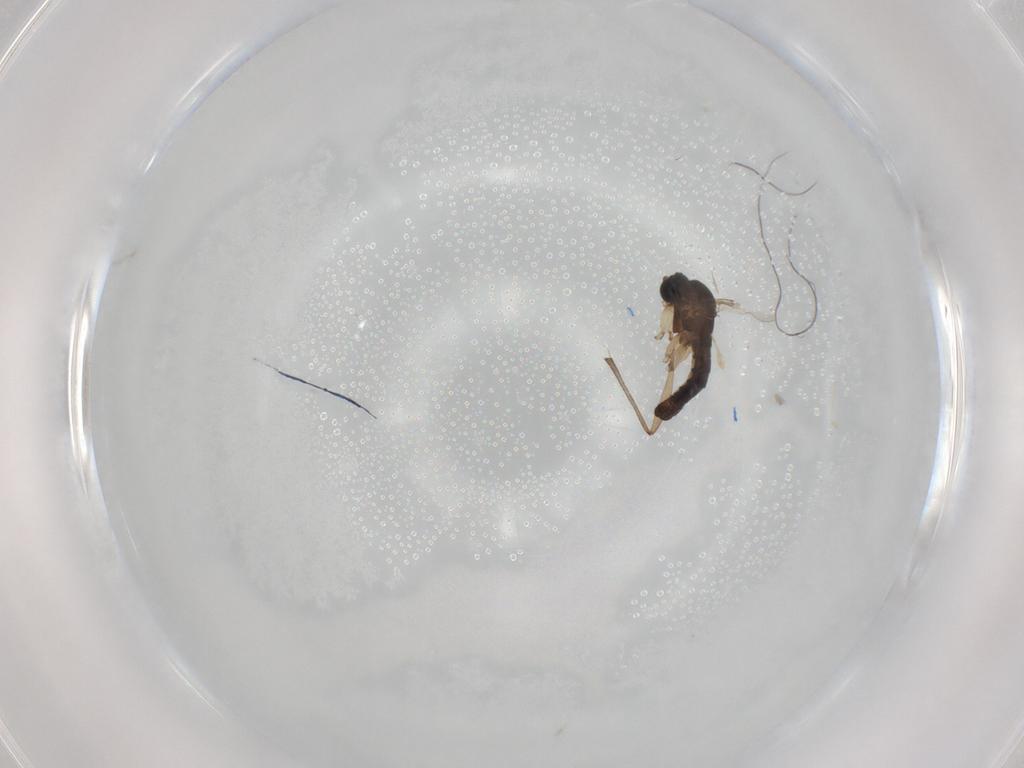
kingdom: Animalia
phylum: Arthropoda
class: Insecta
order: Diptera
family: Sciaridae
